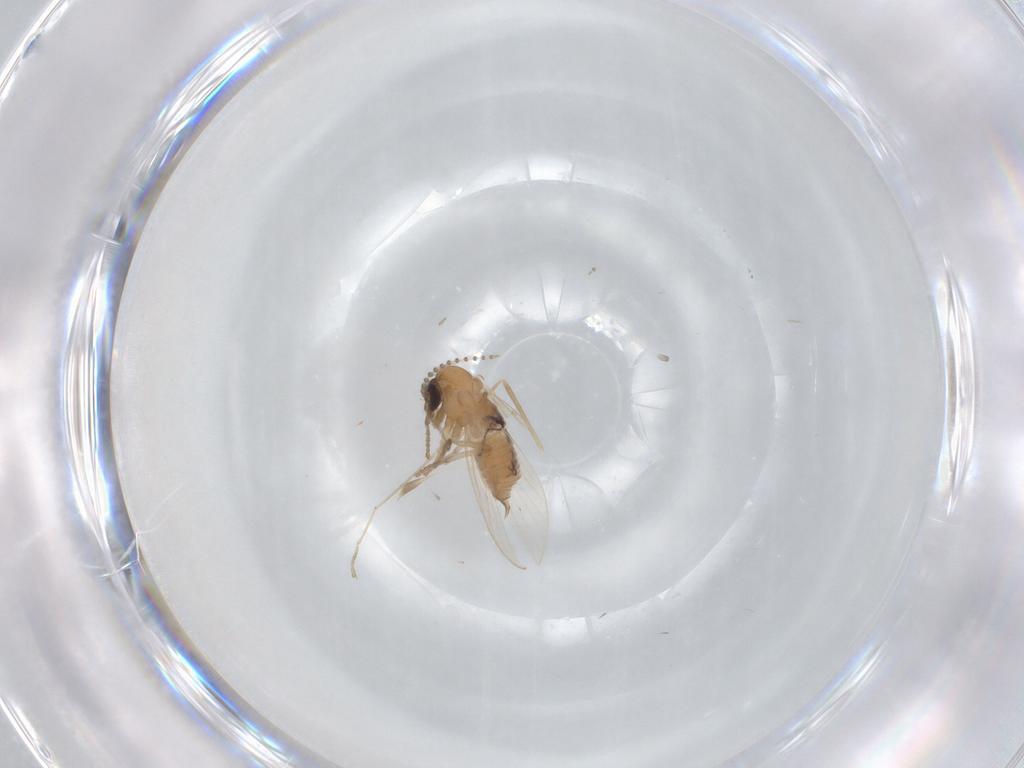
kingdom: Animalia
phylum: Arthropoda
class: Insecta
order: Diptera
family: Psychodidae
